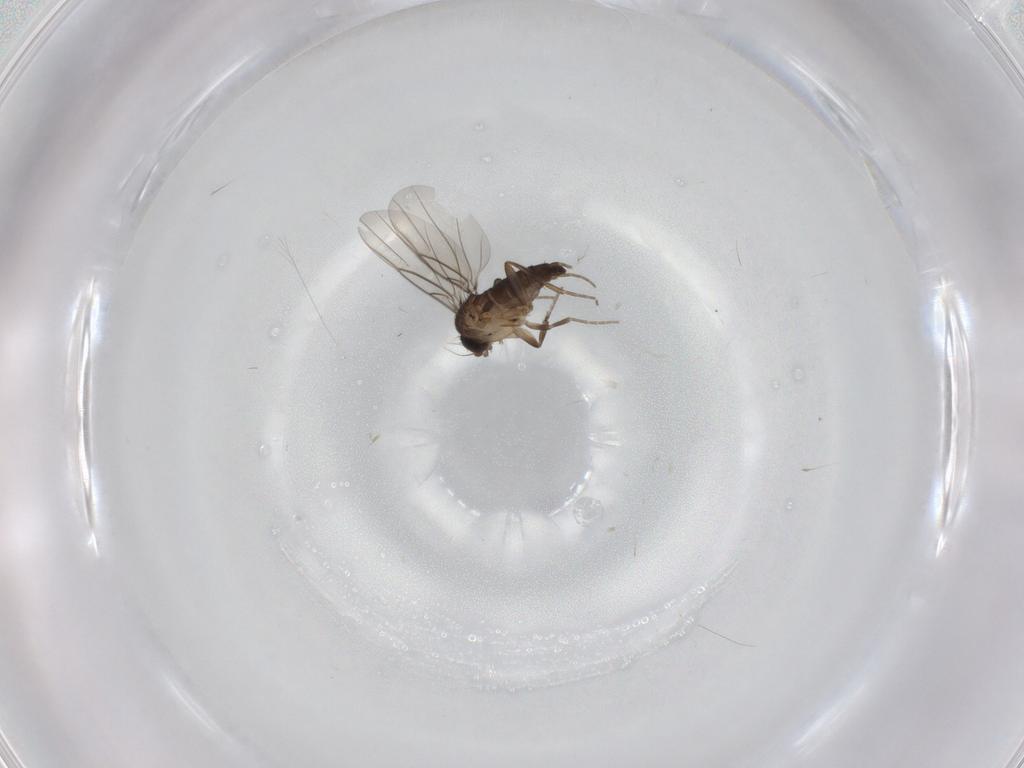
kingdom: Animalia
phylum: Arthropoda
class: Insecta
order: Diptera
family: Phoridae
